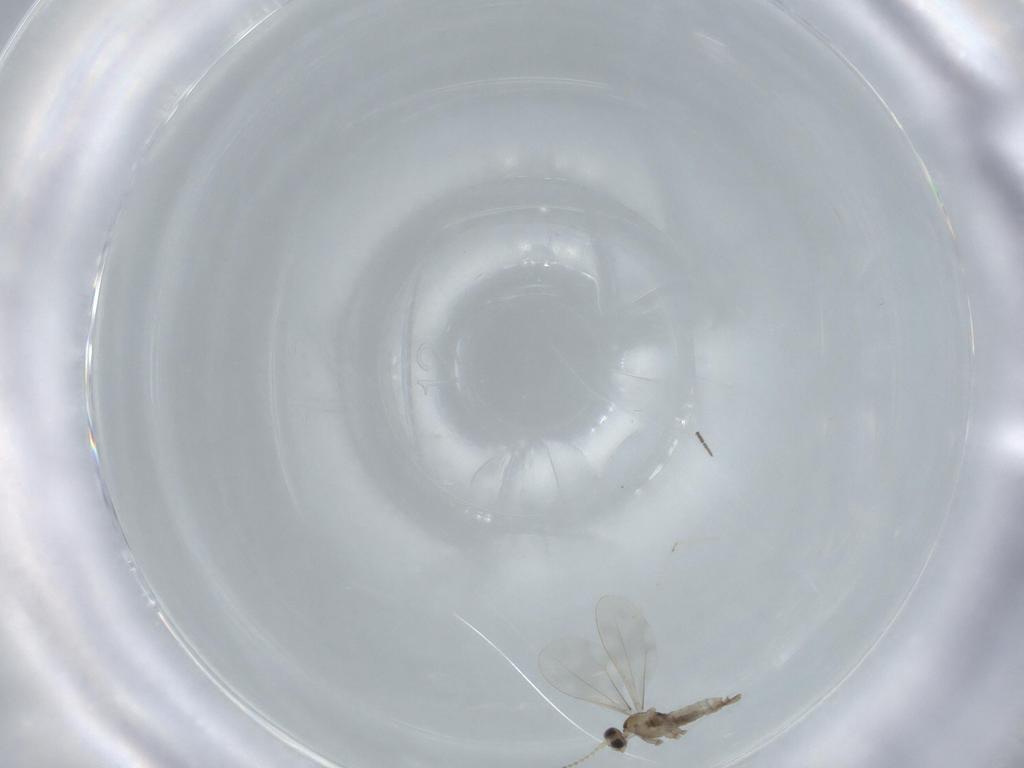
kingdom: Animalia
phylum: Arthropoda
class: Insecta
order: Diptera
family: Cecidomyiidae
